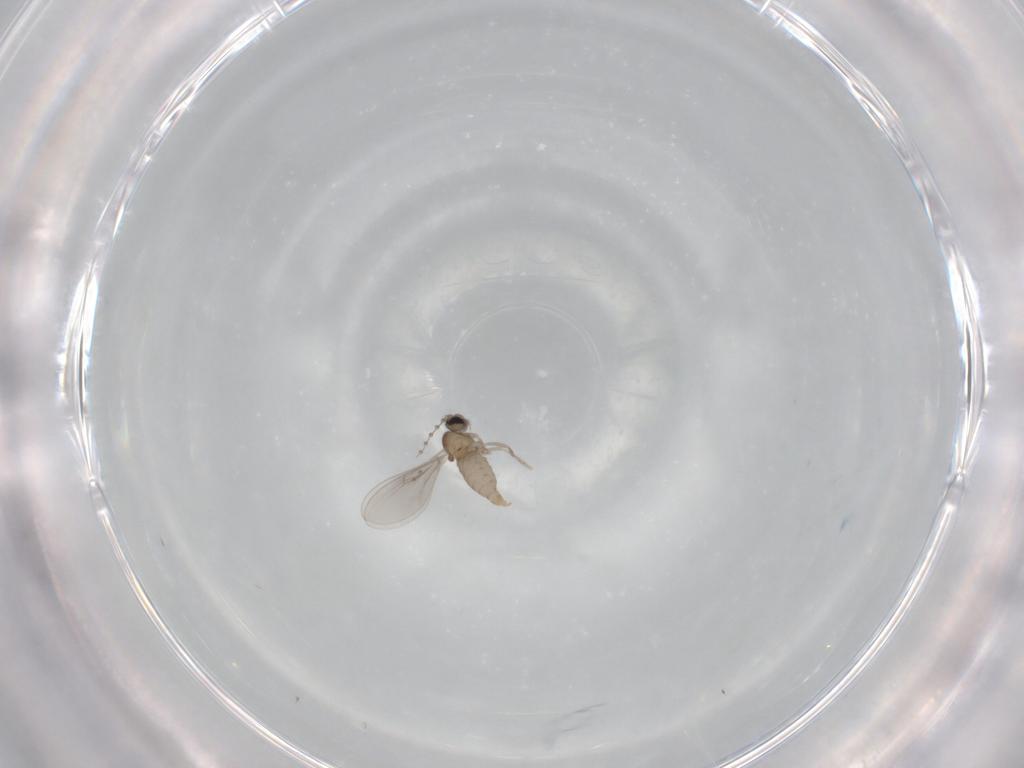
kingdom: Animalia
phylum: Arthropoda
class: Insecta
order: Diptera
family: Cecidomyiidae
